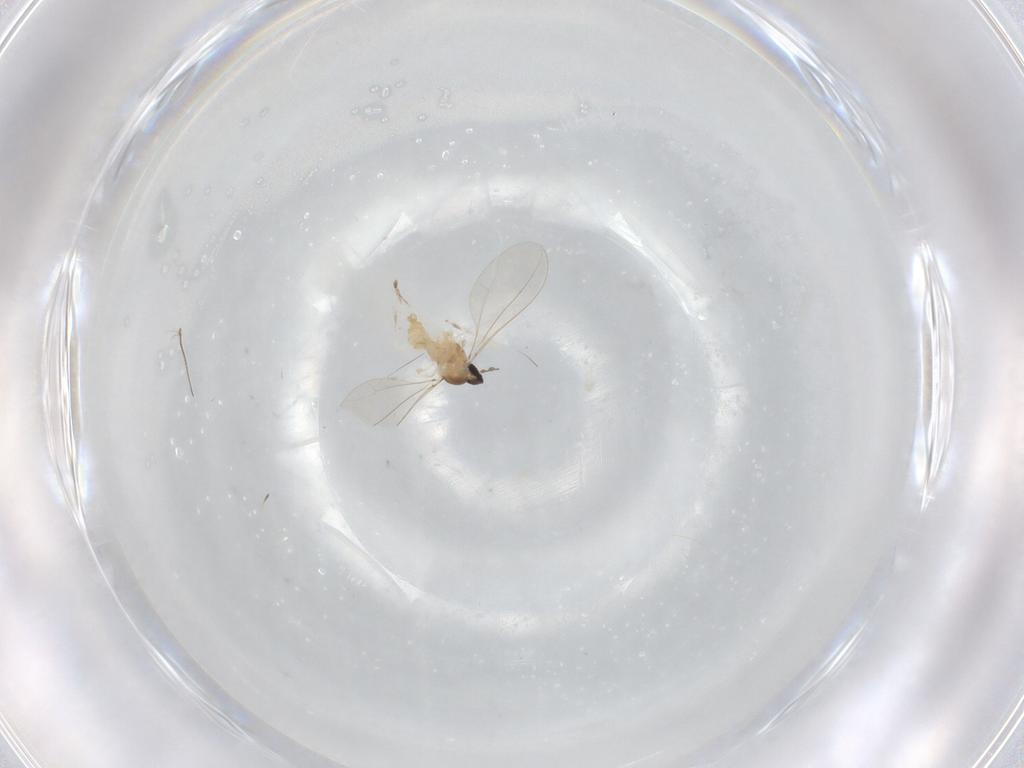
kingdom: Animalia
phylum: Arthropoda
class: Insecta
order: Diptera
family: Cecidomyiidae
